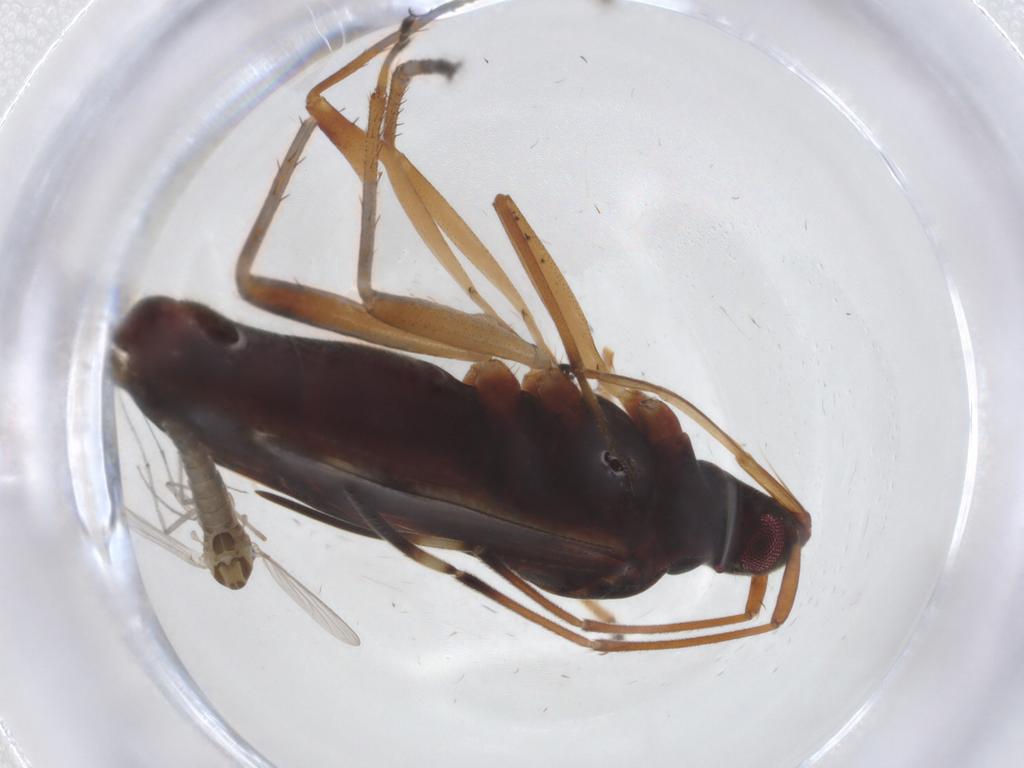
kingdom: Animalia
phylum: Arthropoda
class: Insecta
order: Diptera
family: Chironomidae
